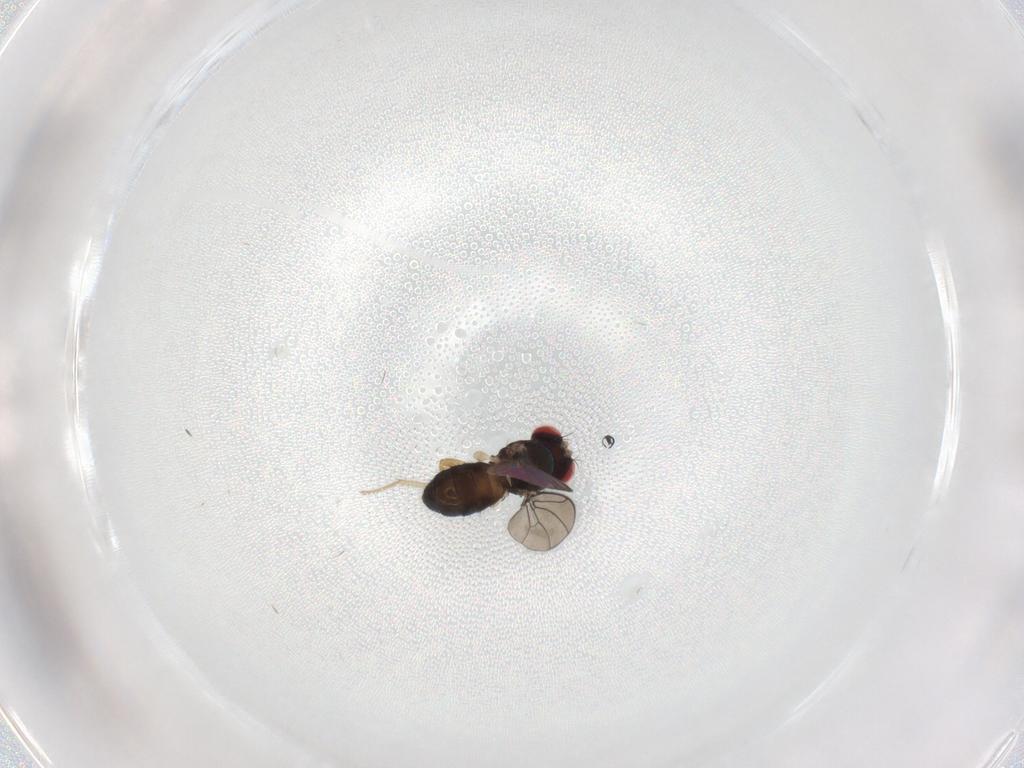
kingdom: Animalia
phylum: Arthropoda
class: Insecta
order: Diptera
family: Drosophilidae
